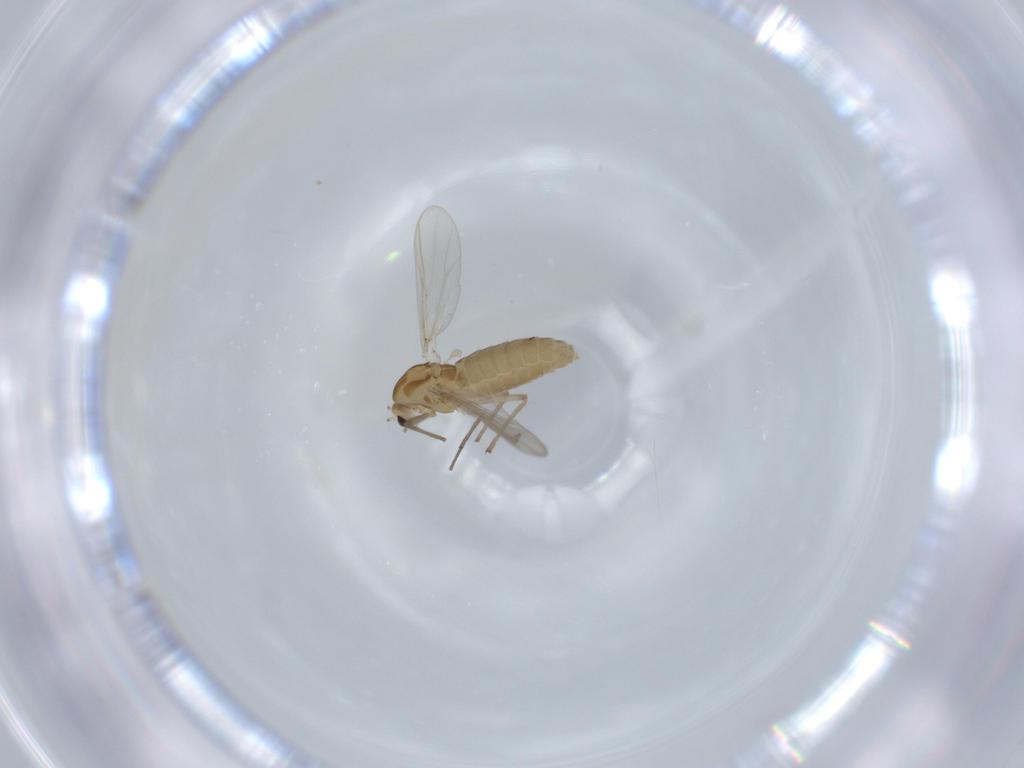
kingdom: Animalia
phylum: Arthropoda
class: Insecta
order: Diptera
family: Chironomidae
